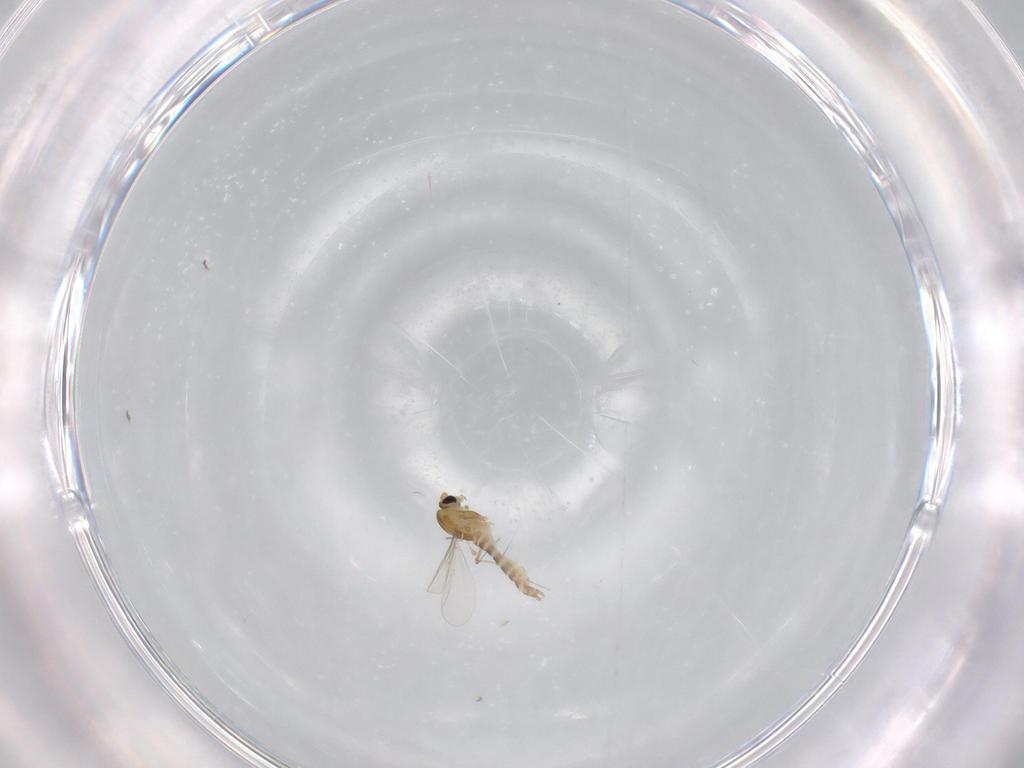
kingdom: Animalia
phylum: Arthropoda
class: Insecta
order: Diptera
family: Chironomidae
